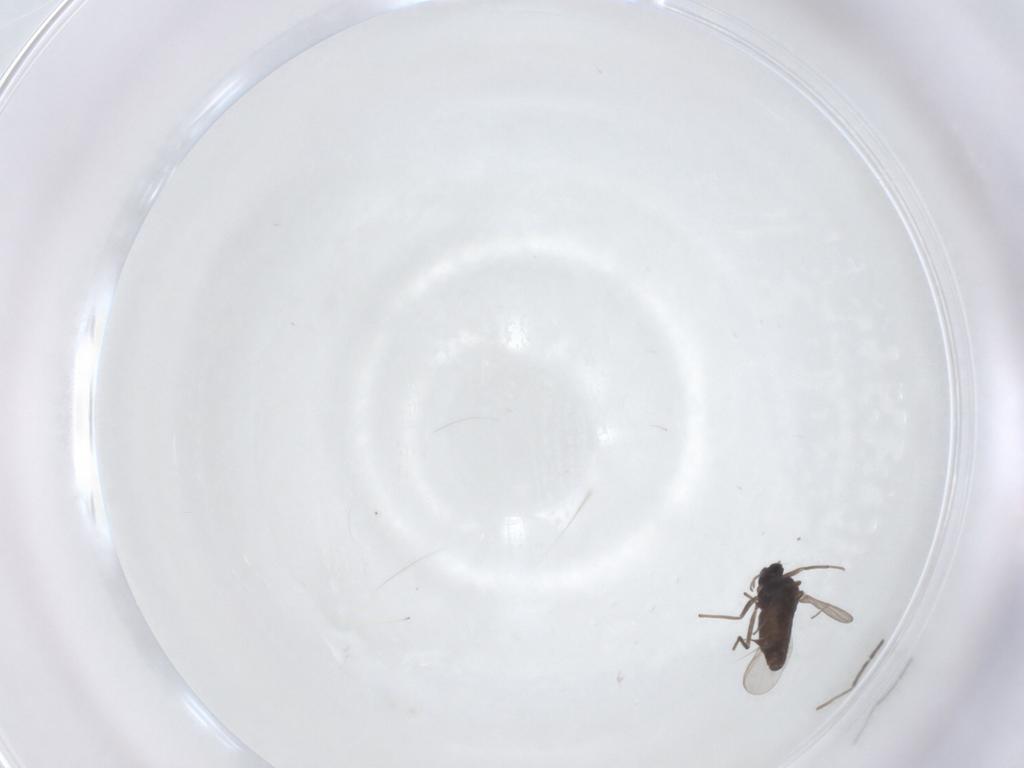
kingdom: Animalia
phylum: Arthropoda
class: Insecta
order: Diptera
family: Chironomidae
